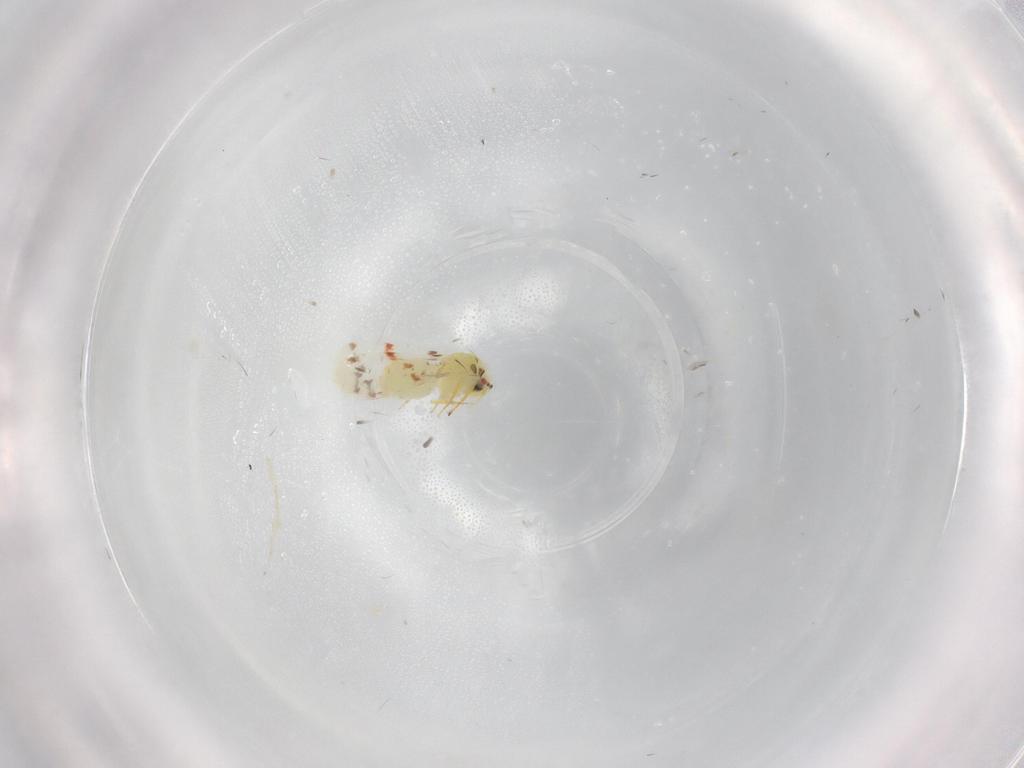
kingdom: Animalia
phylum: Arthropoda
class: Insecta
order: Hemiptera
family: Aleyrodidae
